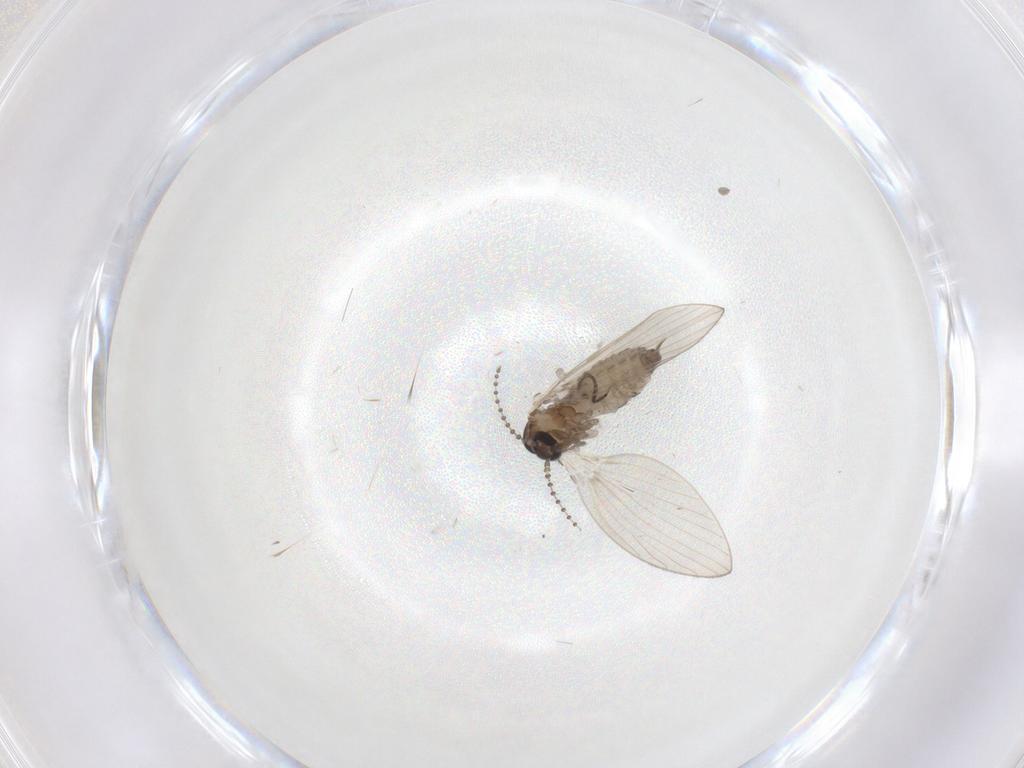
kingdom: Animalia
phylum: Arthropoda
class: Insecta
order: Diptera
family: Psychodidae
